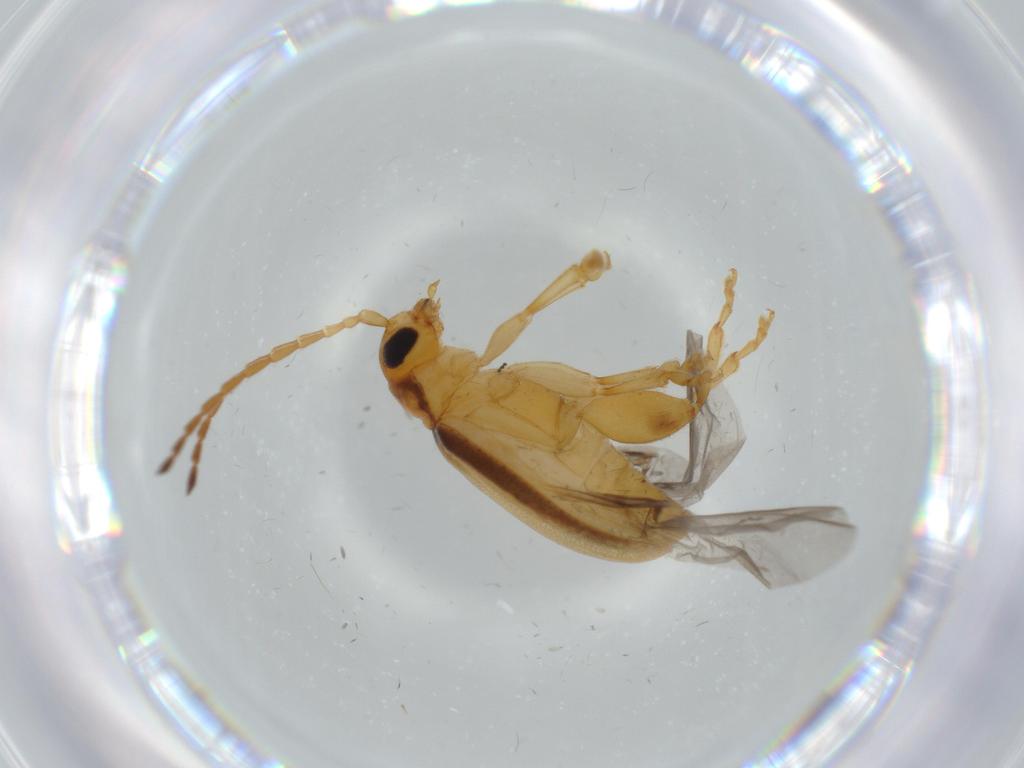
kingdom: Animalia
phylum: Arthropoda
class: Insecta
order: Coleoptera
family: Chrysomelidae
